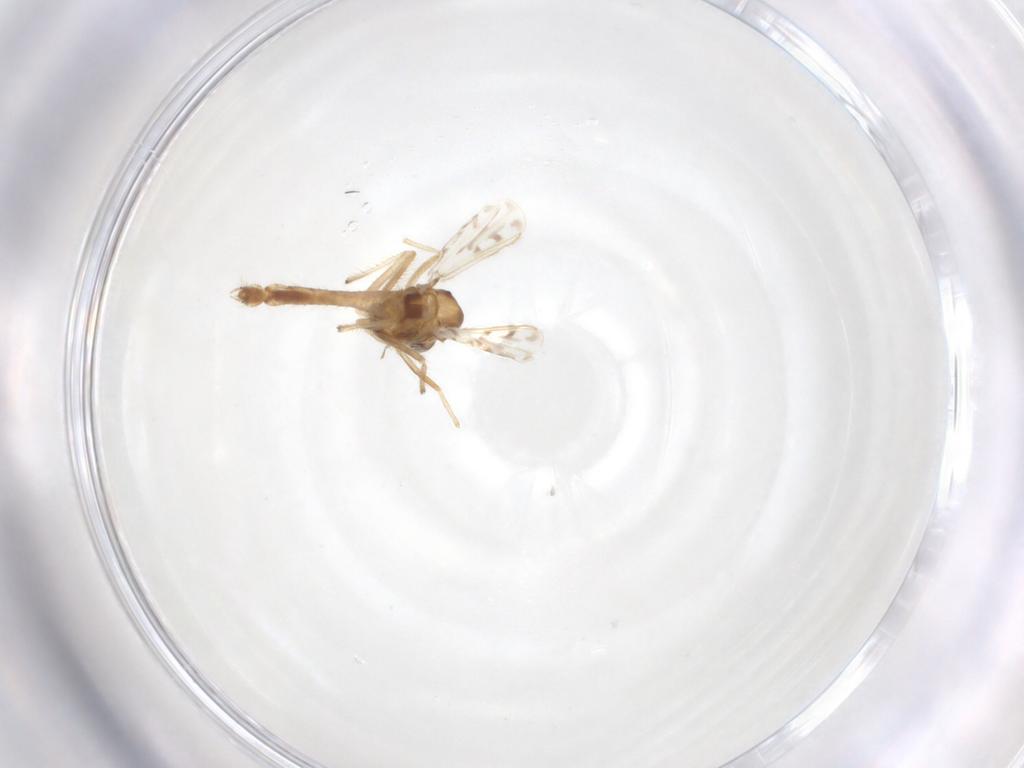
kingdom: Animalia
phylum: Arthropoda
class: Insecta
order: Diptera
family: Chironomidae
